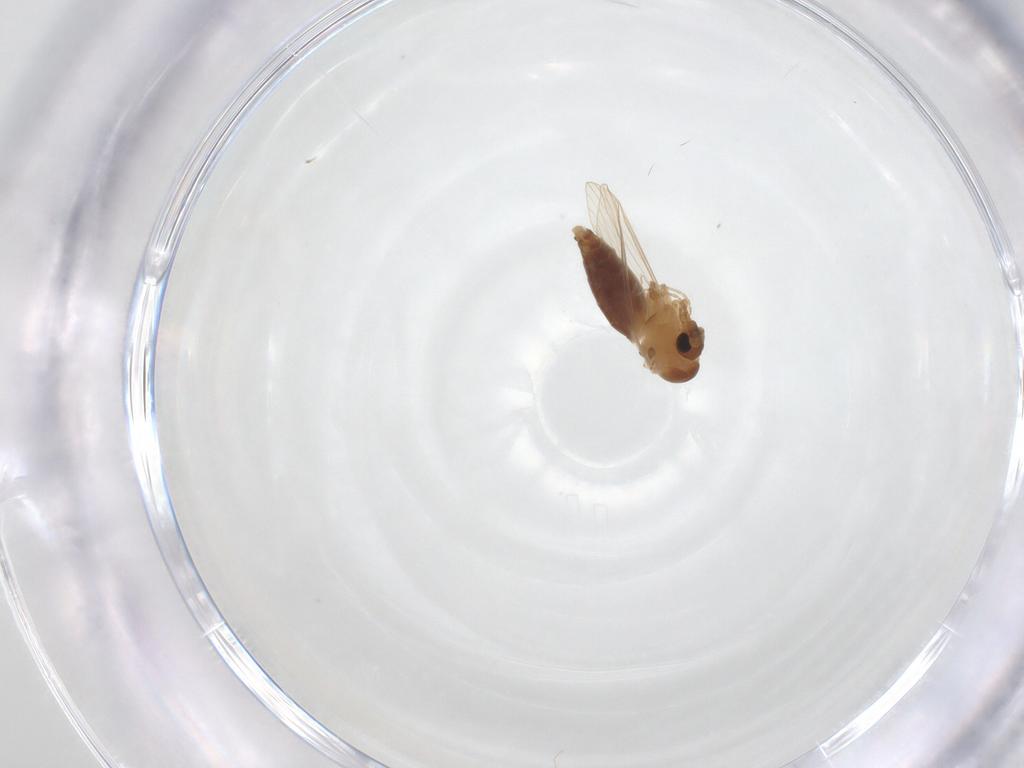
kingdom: Animalia
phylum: Arthropoda
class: Insecta
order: Diptera
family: Psychodidae
